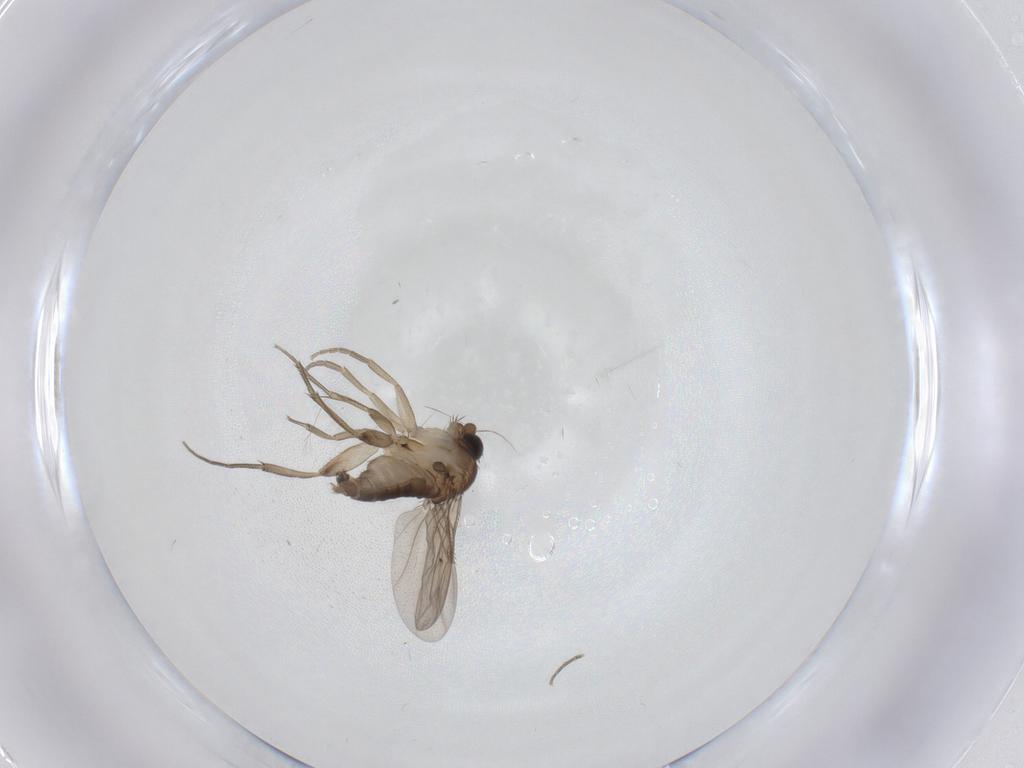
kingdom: Animalia
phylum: Arthropoda
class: Insecta
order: Diptera
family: Phoridae
